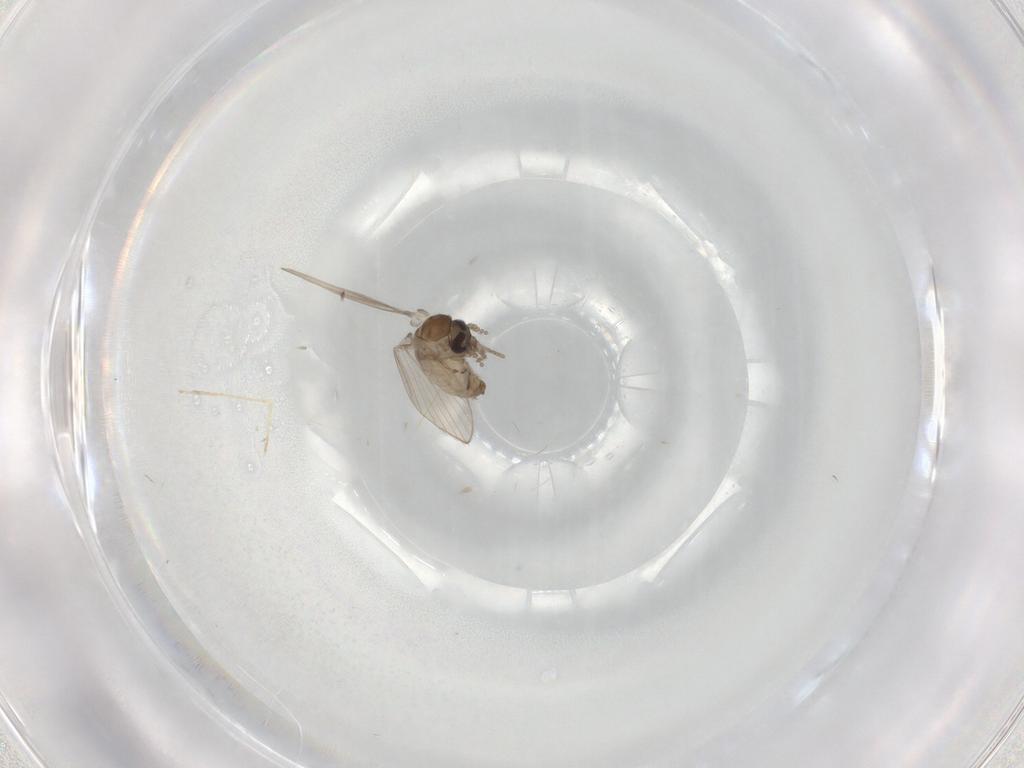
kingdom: Animalia
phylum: Arthropoda
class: Insecta
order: Diptera
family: Psychodidae
